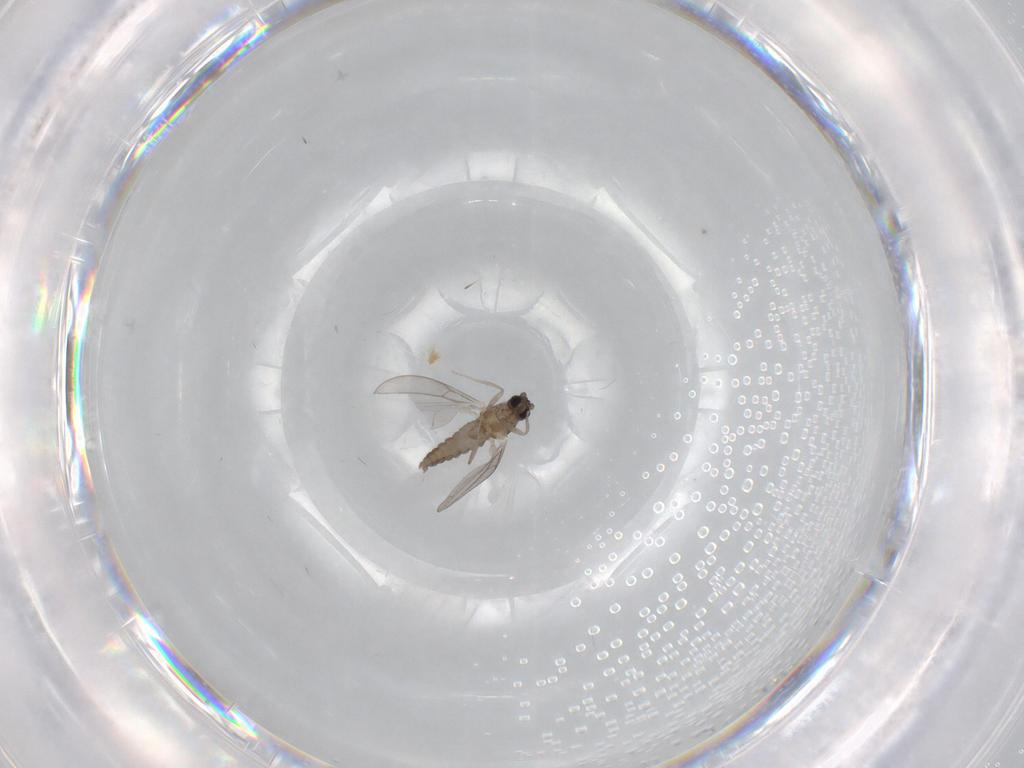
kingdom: Animalia
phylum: Arthropoda
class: Insecta
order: Diptera
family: Cecidomyiidae
